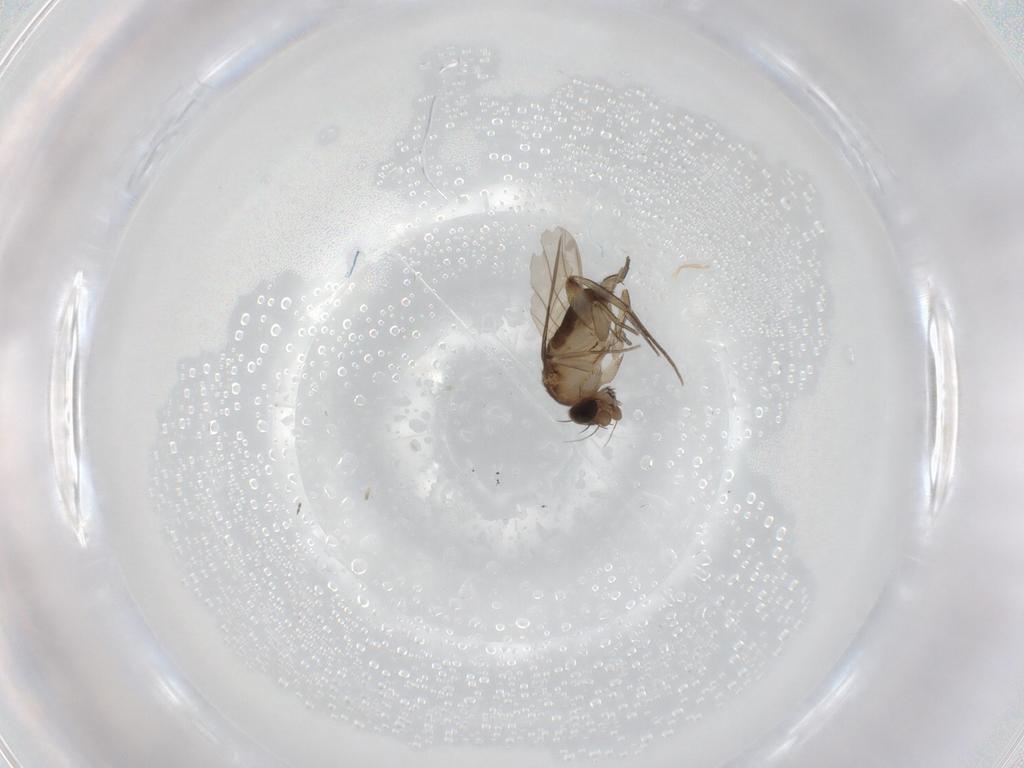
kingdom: Animalia
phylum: Arthropoda
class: Insecta
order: Diptera
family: Phoridae
